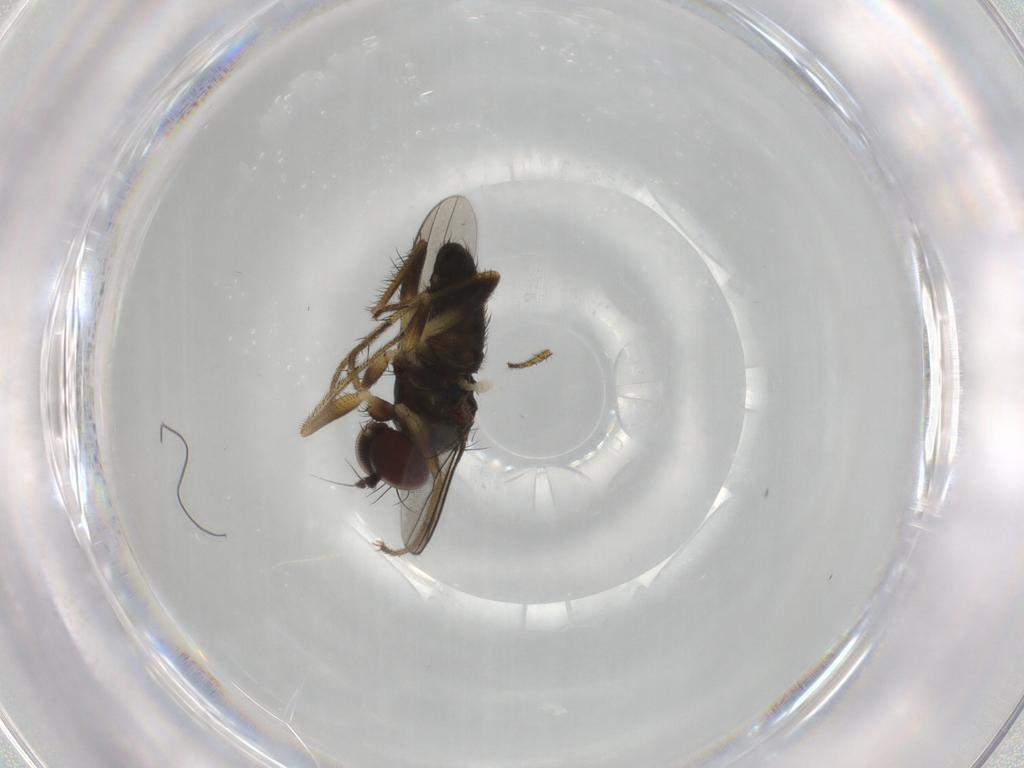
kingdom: Animalia
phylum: Arthropoda
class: Insecta
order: Diptera
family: Dolichopodidae
